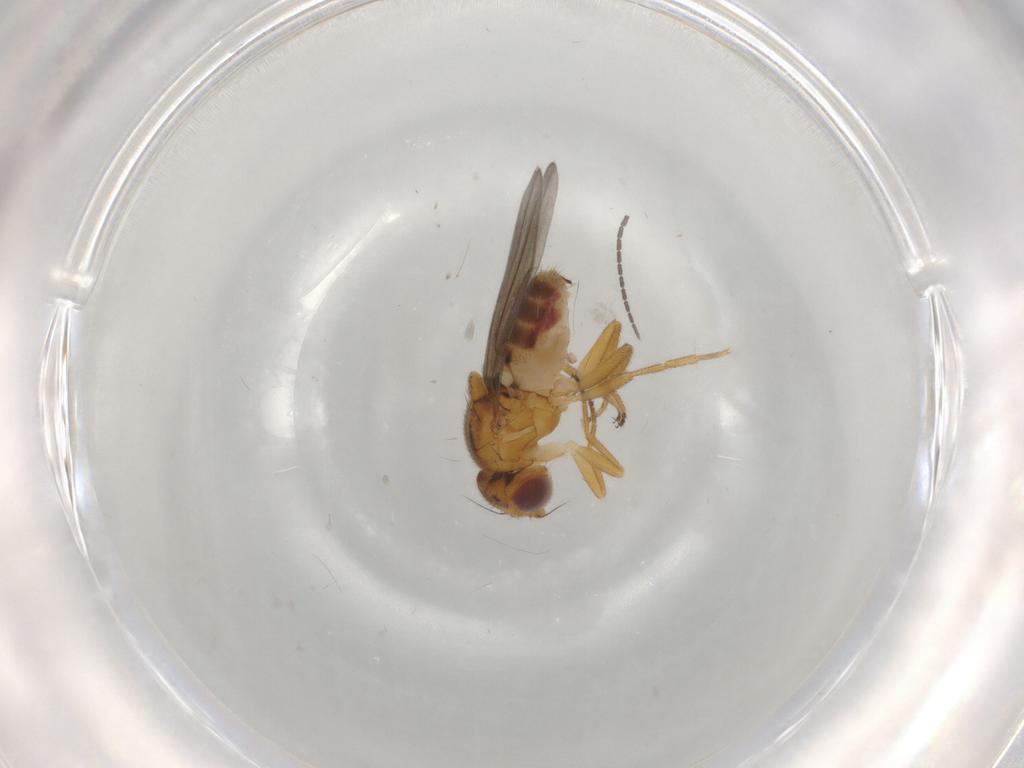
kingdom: Animalia
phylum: Arthropoda
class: Insecta
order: Diptera
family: Chloropidae
